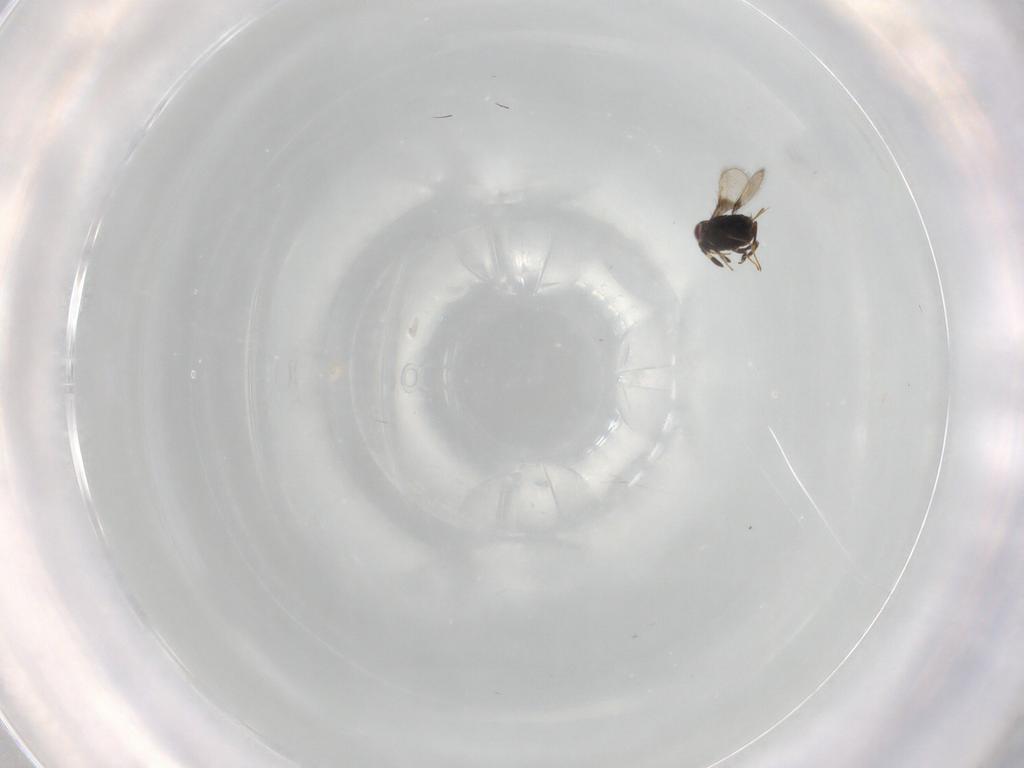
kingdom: Animalia
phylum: Arthropoda
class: Insecta
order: Hymenoptera
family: Azotidae
